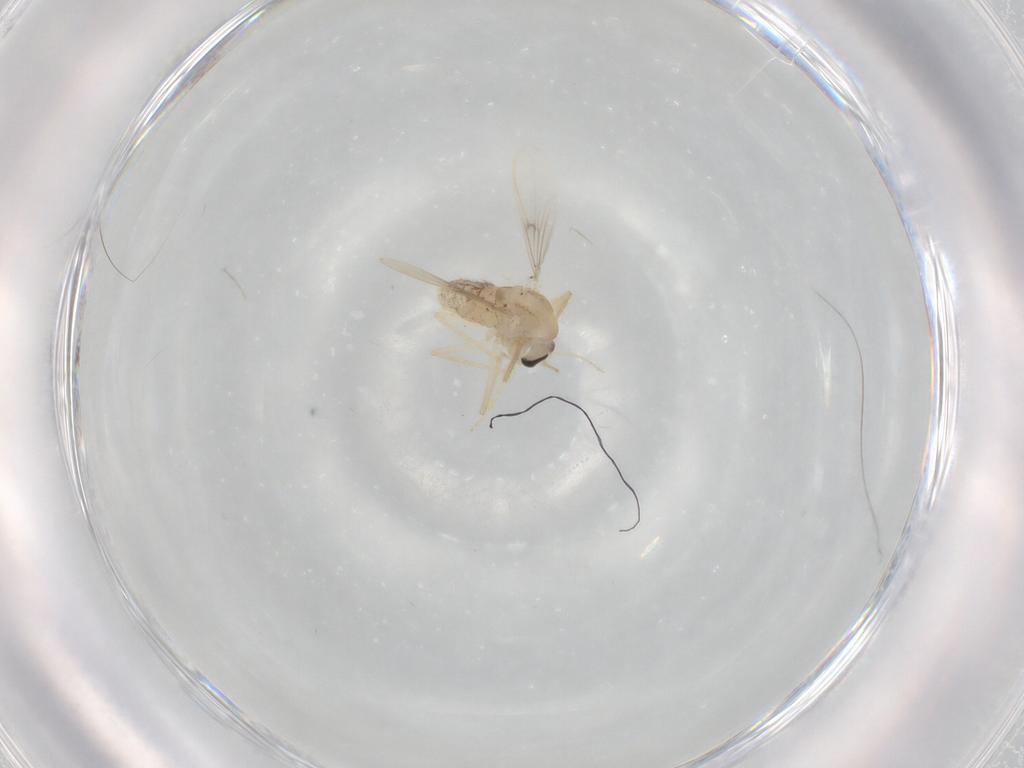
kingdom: Animalia
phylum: Arthropoda
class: Insecta
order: Diptera
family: Chironomidae
